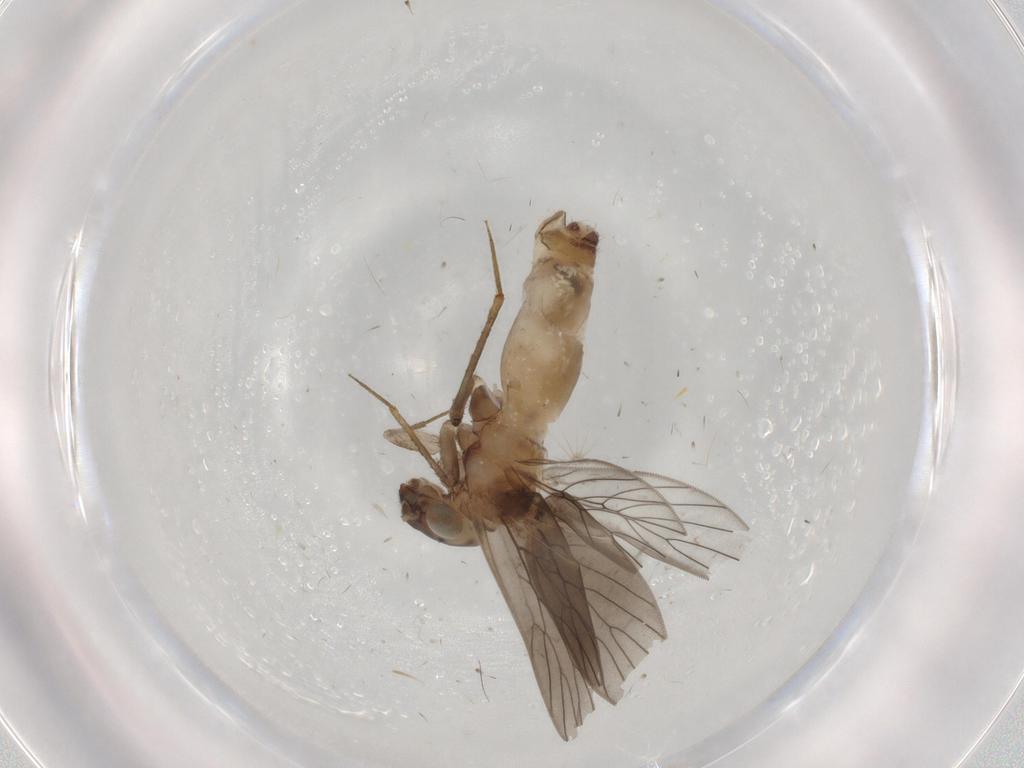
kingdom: Animalia
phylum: Arthropoda
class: Insecta
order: Psocodea
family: Lepidopsocidae
